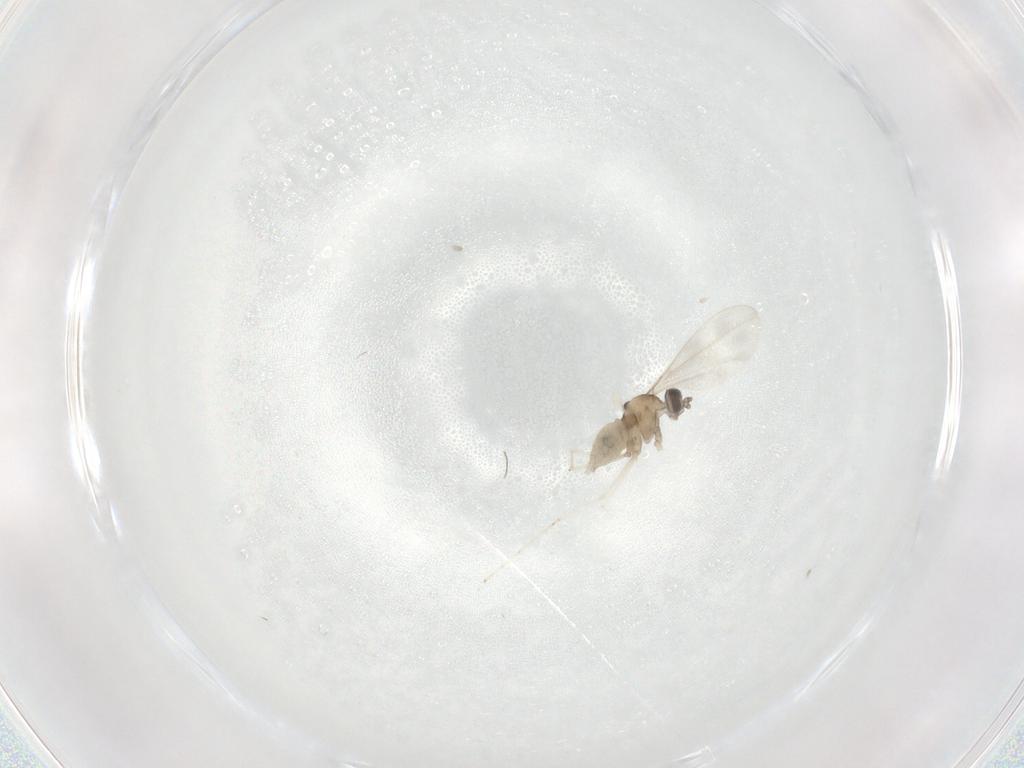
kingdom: Animalia
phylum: Arthropoda
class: Insecta
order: Diptera
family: Cecidomyiidae
